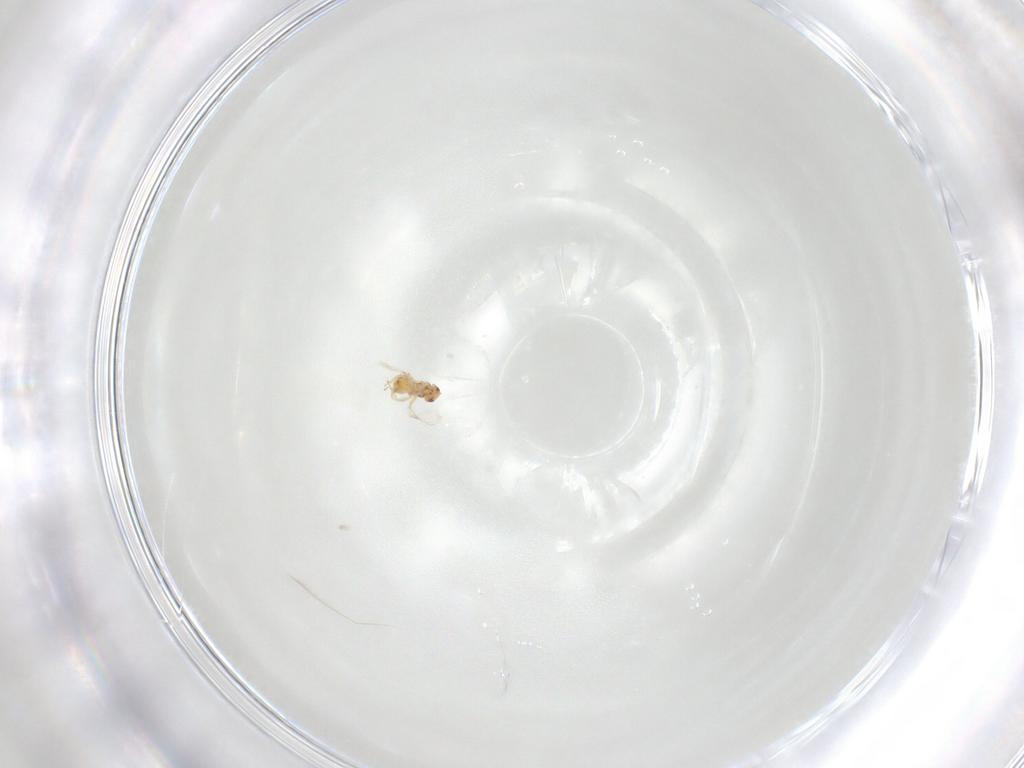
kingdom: Animalia
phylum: Arthropoda
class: Insecta
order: Hymenoptera
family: Trichogrammatidae
